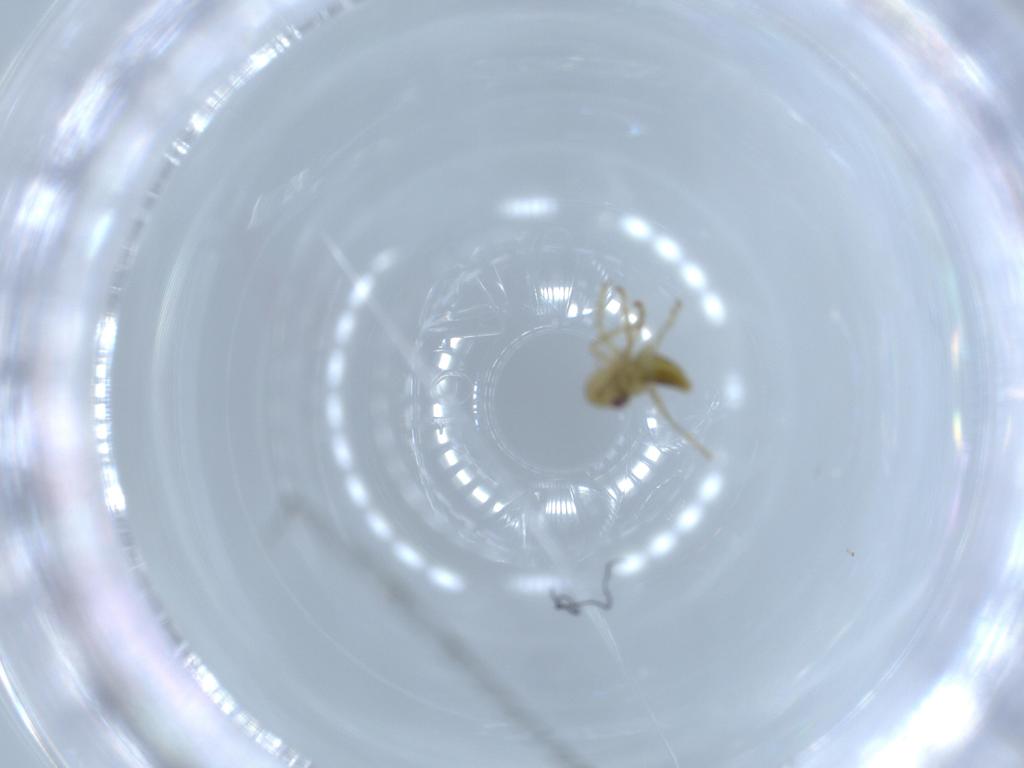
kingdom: Animalia
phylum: Arthropoda
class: Insecta
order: Hemiptera
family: Cicadellidae
